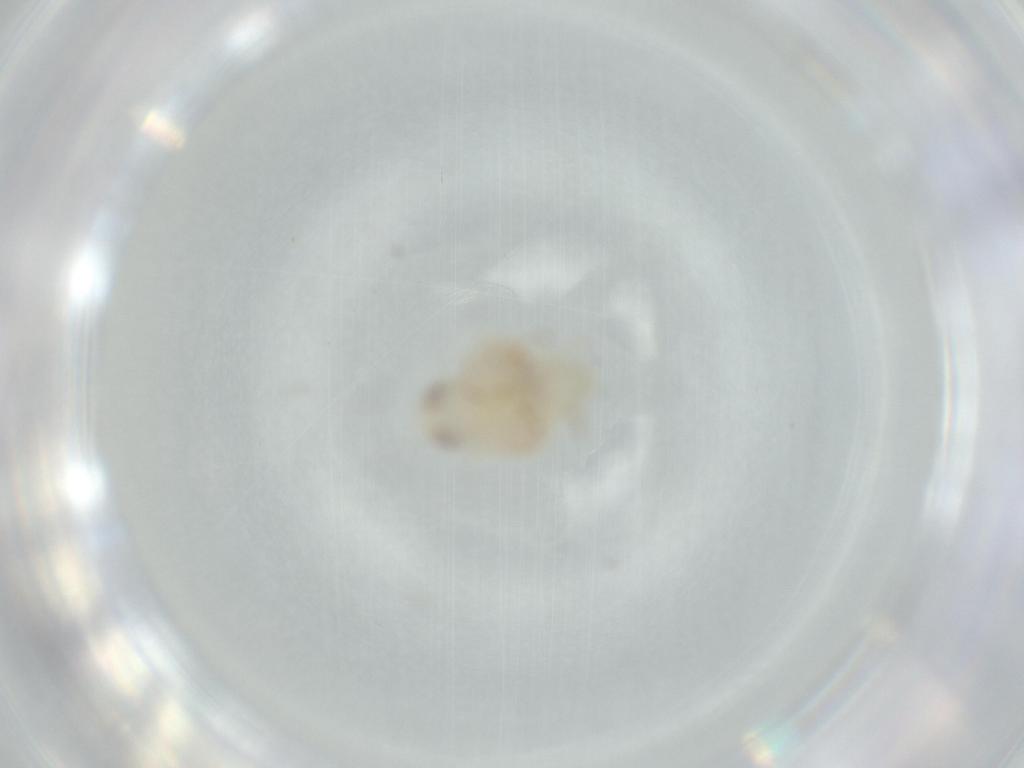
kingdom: Animalia
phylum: Arthropoda
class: Insecta
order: Hemiptera
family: Nogodinidae
